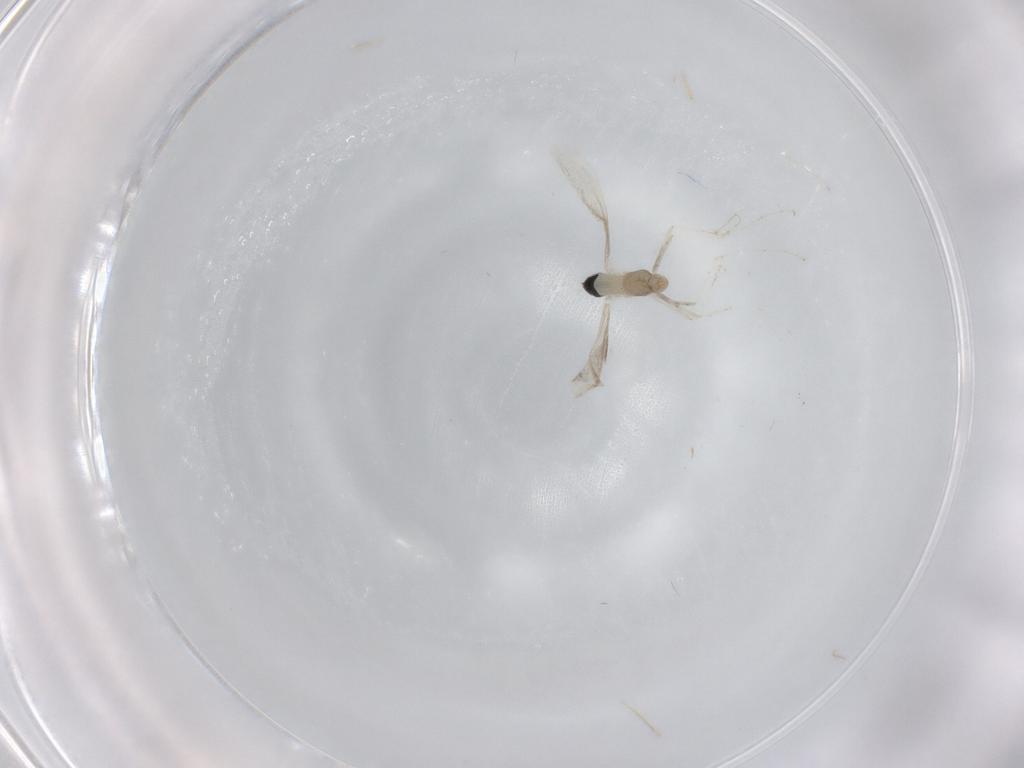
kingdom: Animalia
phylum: Arthropoda
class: Insecta
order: Diptera
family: Cecidomyiidae
